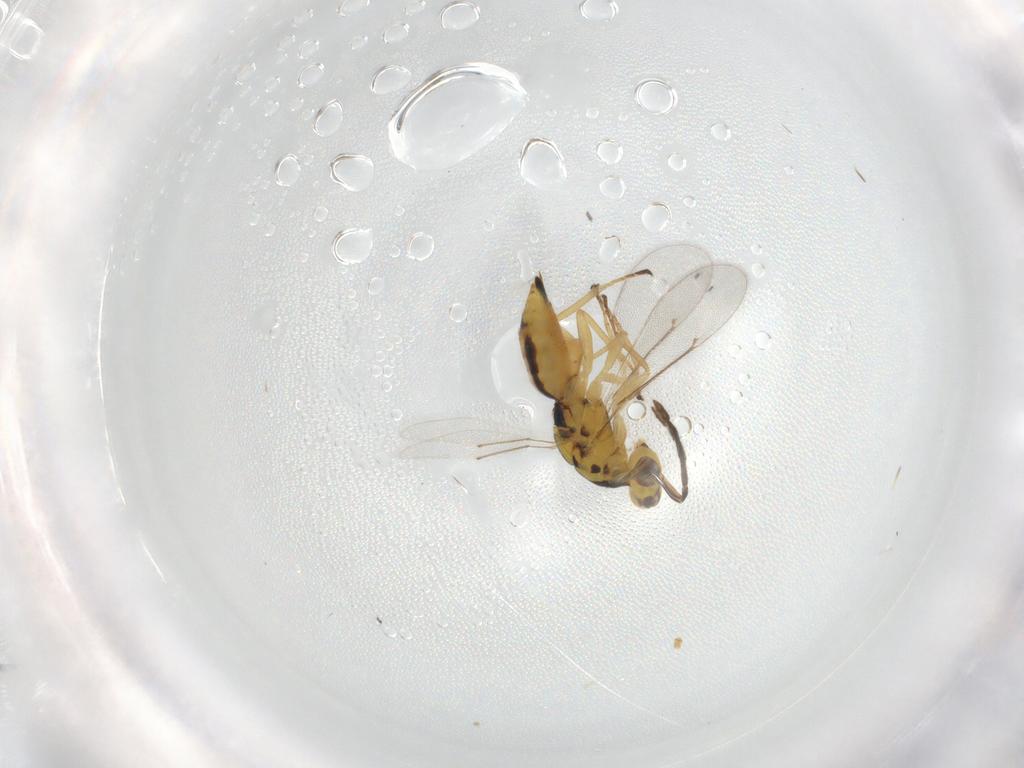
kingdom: Animalia
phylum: Arthropoda
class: Insecta
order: Hymenoptera
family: Eulophidae
